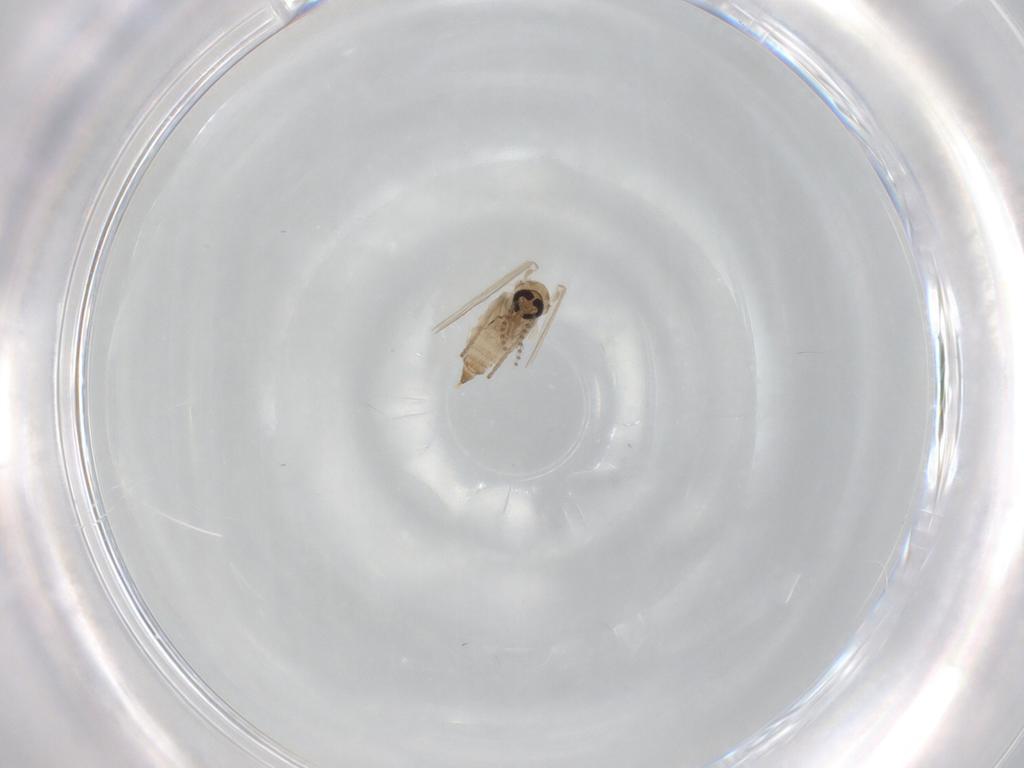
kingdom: Animalia
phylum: Arthropoda
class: Insecta
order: Diptera
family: Psychodidae
